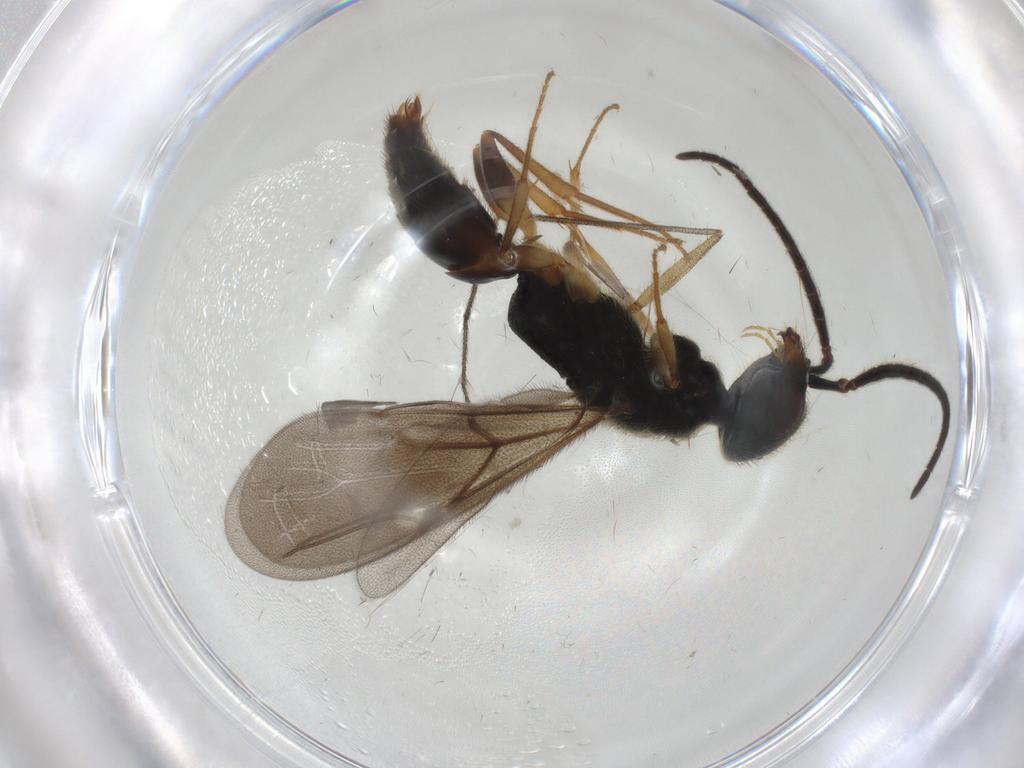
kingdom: Animalia
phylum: Arthropoda
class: Insecta
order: Hymenoptera
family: Bethylidae
